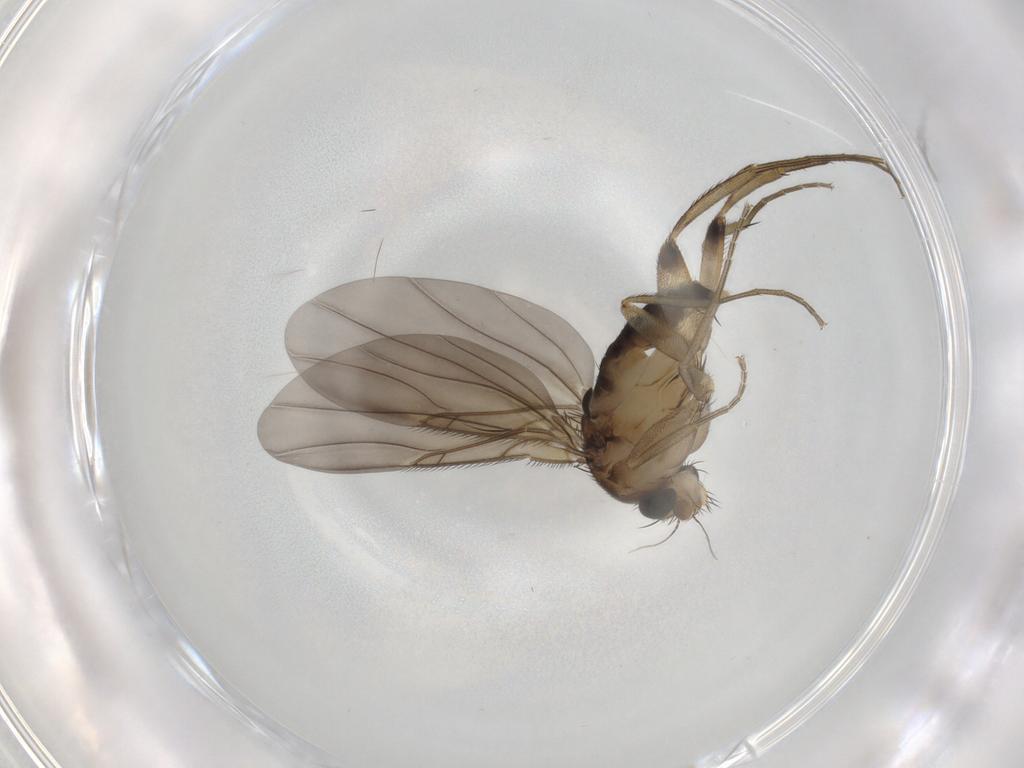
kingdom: Animalia
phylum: Arthropoda
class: Insecta
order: Diptera
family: Phoridae
